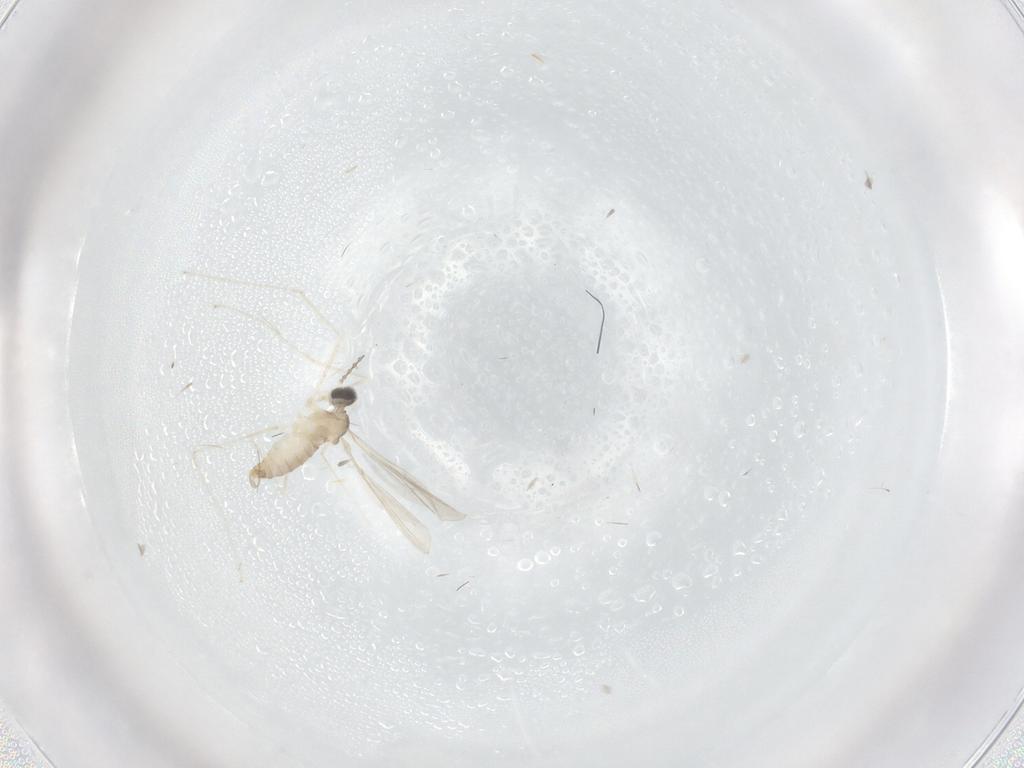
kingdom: Animalia
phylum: Arthropoda
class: Insecta
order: Diptera
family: Cecidomyiidae
